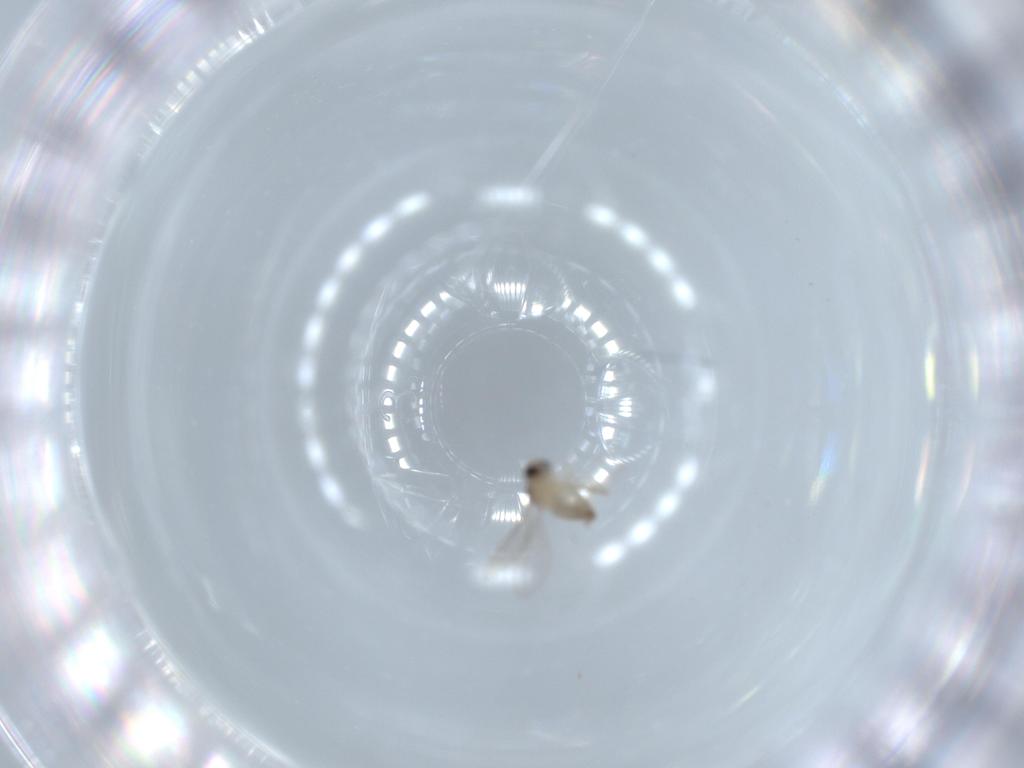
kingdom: Animalia
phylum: Arthropoda
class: Insecta
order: Diptera
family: Cecidomyiidae
